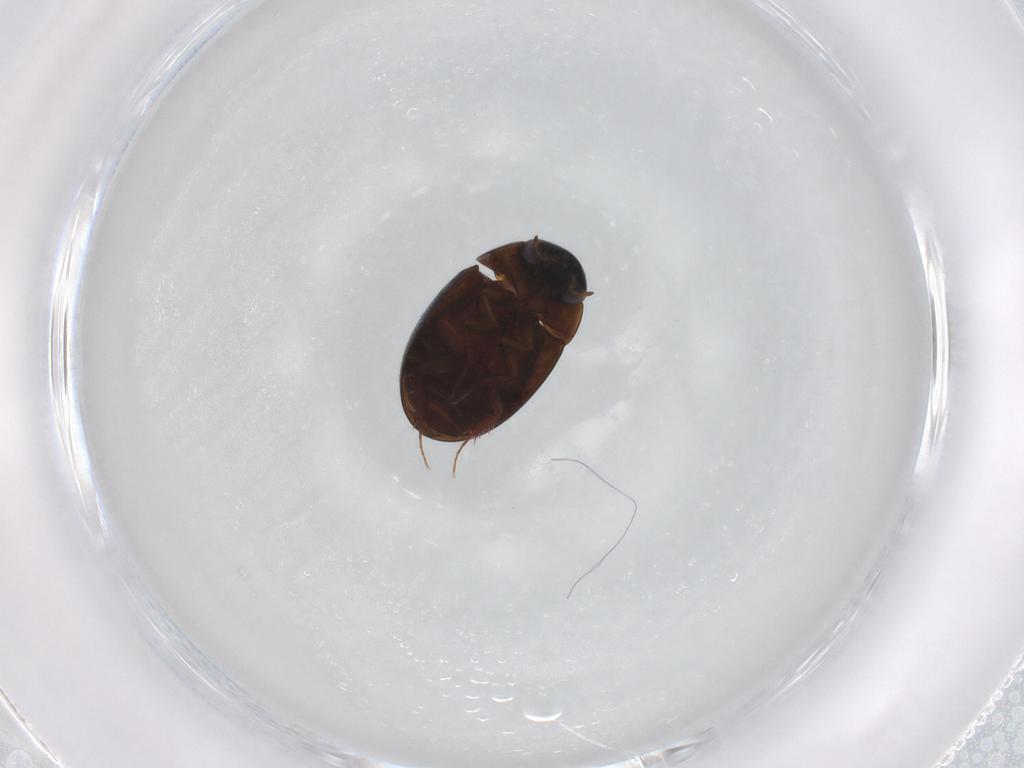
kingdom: Animalia
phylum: Arthropoda
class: Insecta
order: Coleoptera
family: Hydrophilidae
